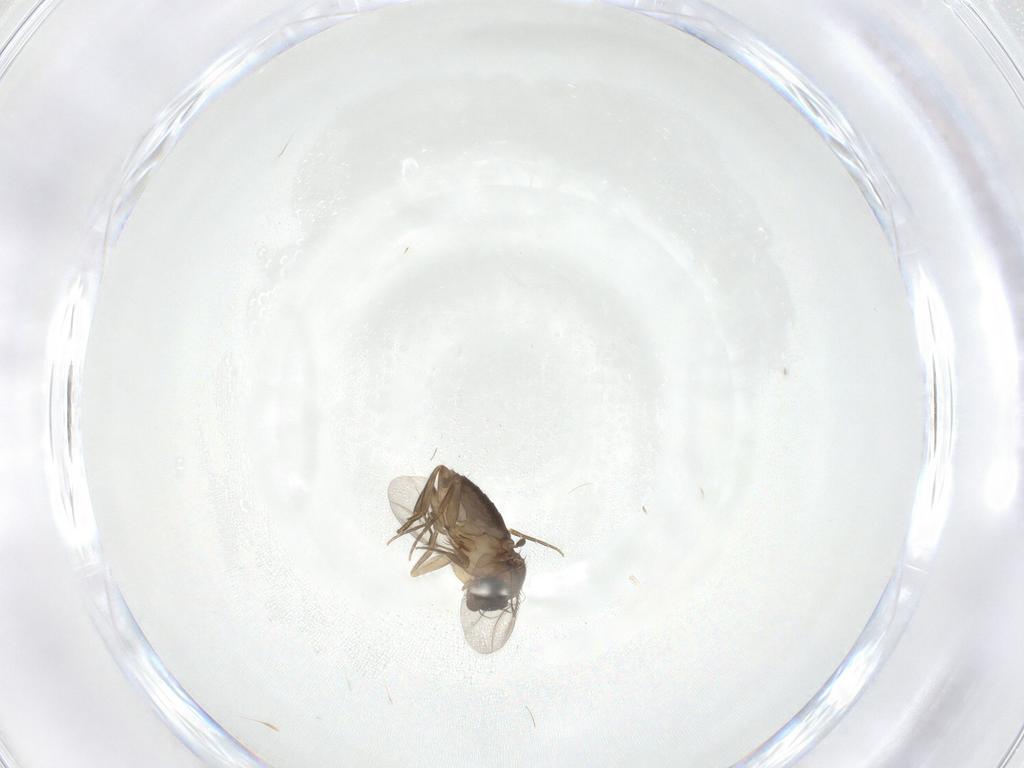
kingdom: Animalia
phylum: Arthropoda
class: Insecta
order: Diptera
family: Phoridae
